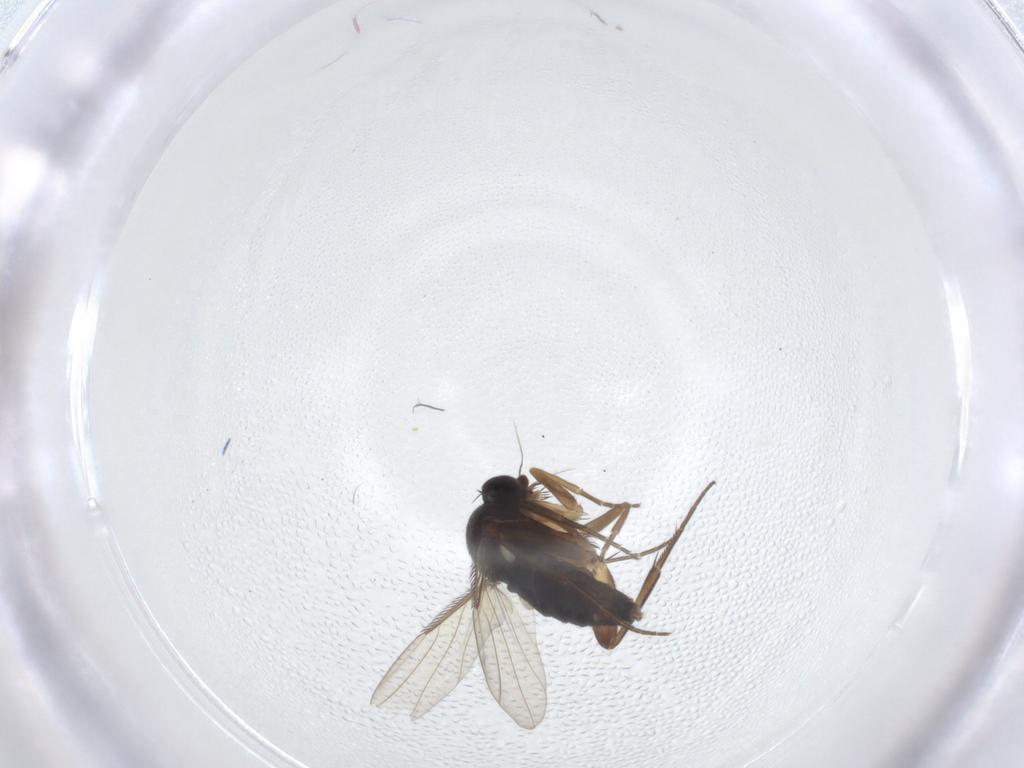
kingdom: Animalia
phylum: Arthropoda
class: Insecta
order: Diptera
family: Phoridae
